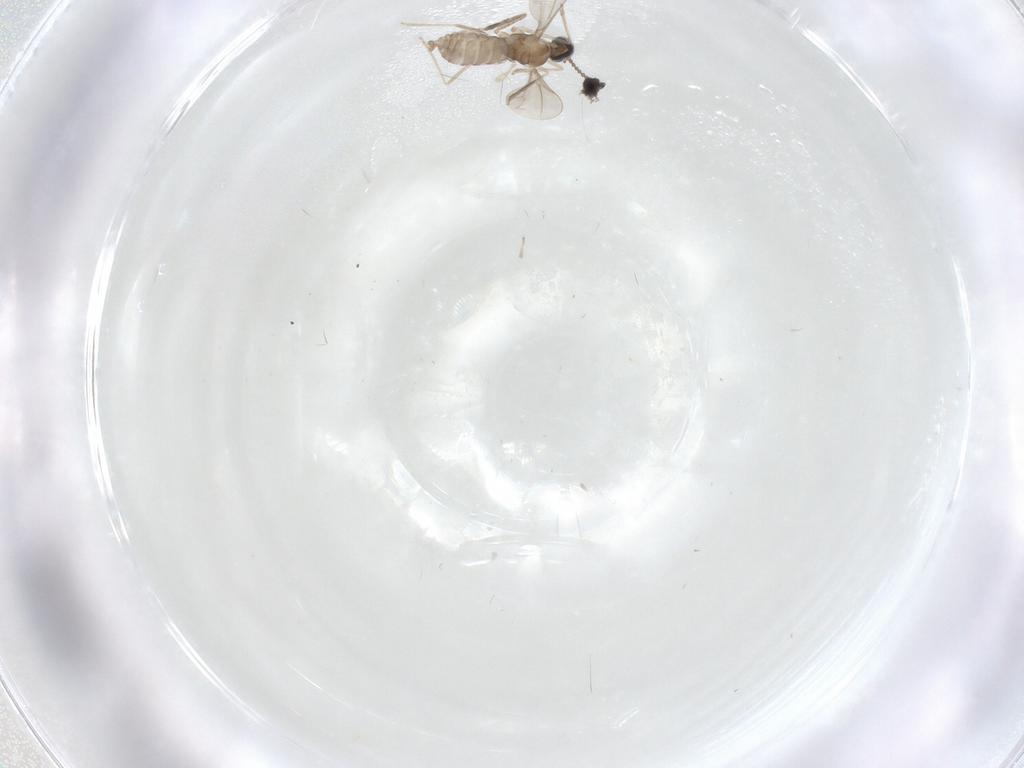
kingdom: Animalia
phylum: Arthropoda
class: Insecta
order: Diptera
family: Cecidomyiidae
